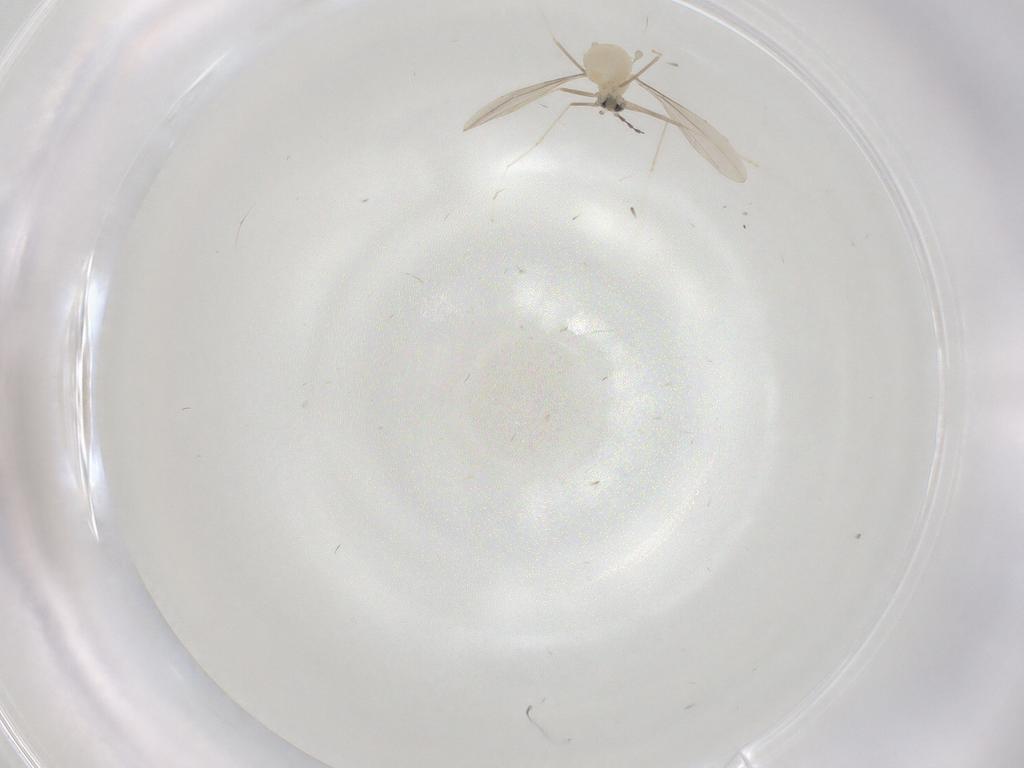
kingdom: Animalia
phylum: Arthropoda
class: Insecta
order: Diptera
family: Cecidomyiidae
